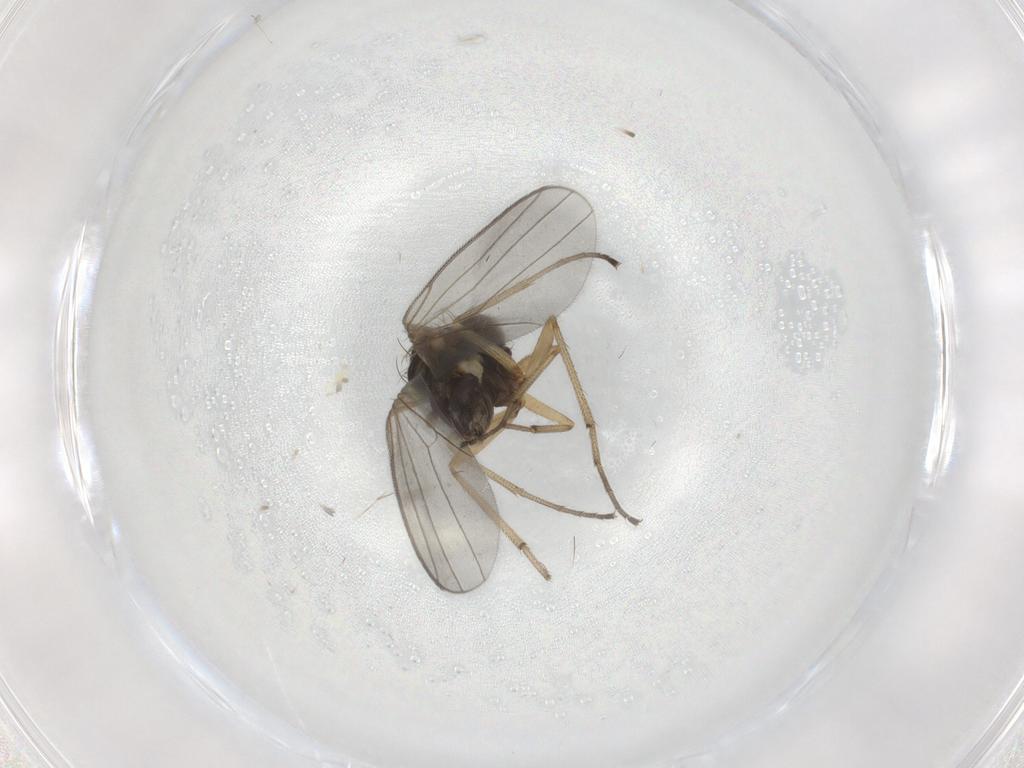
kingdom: Animalia
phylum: Arthropoda
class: Insecta
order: Diptera
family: Dolichopodidae
